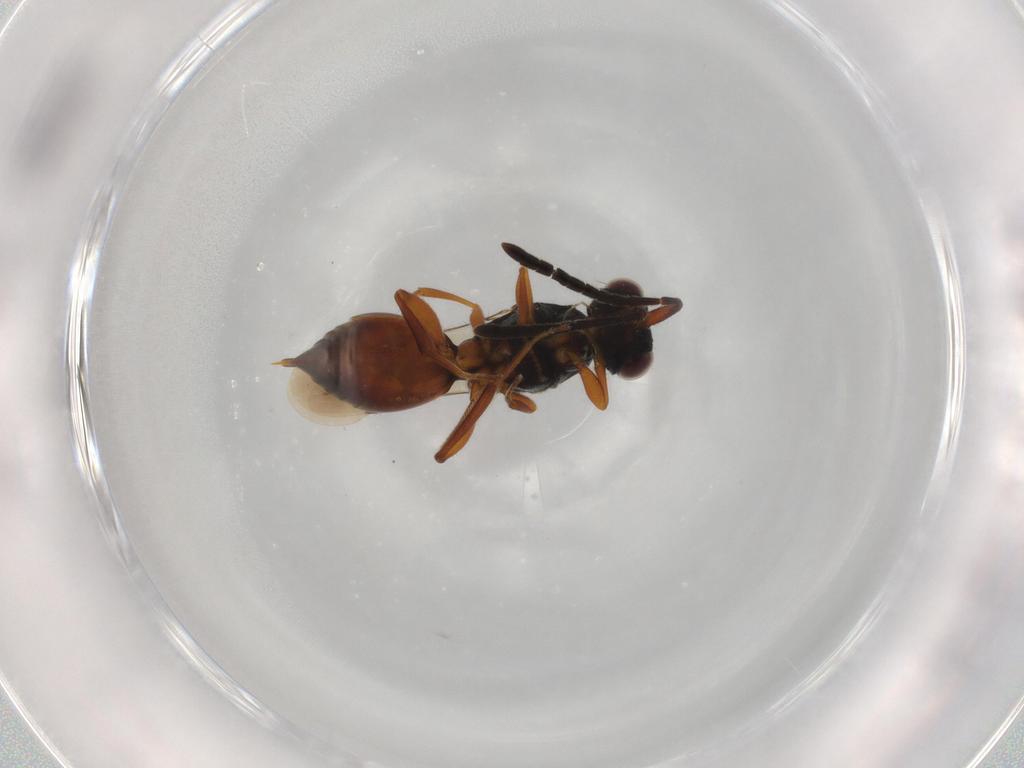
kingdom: Animalia
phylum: Arthropoda
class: Insecta
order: Hymenoptera
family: Megaspilidae
